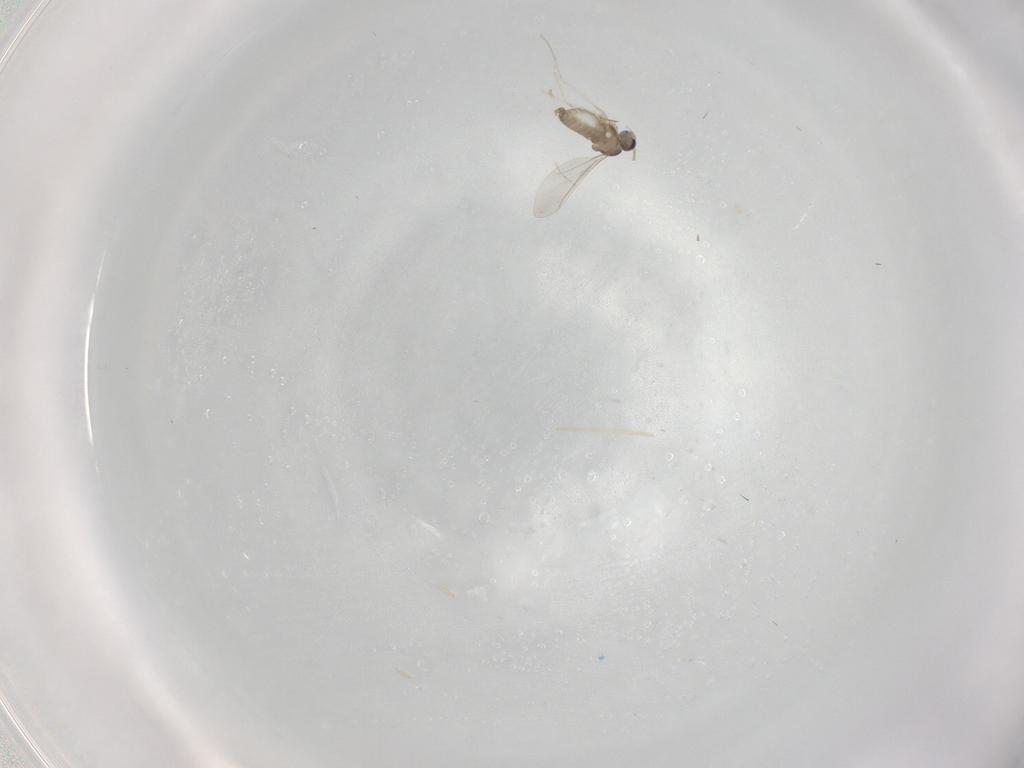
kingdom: Animalia
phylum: Arthropoda
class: Insecta
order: Diptera
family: Cecidomyiidae
